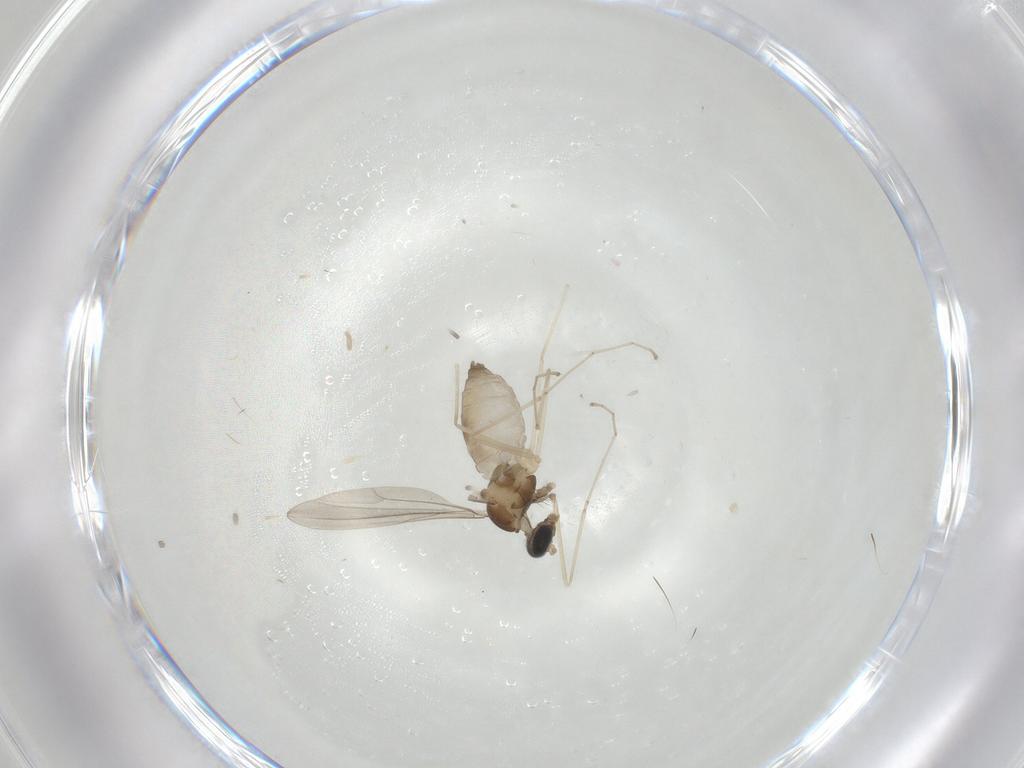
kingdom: Animalia
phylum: Arthropoda
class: Insecta
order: Diptera
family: Cecidomyiidae
